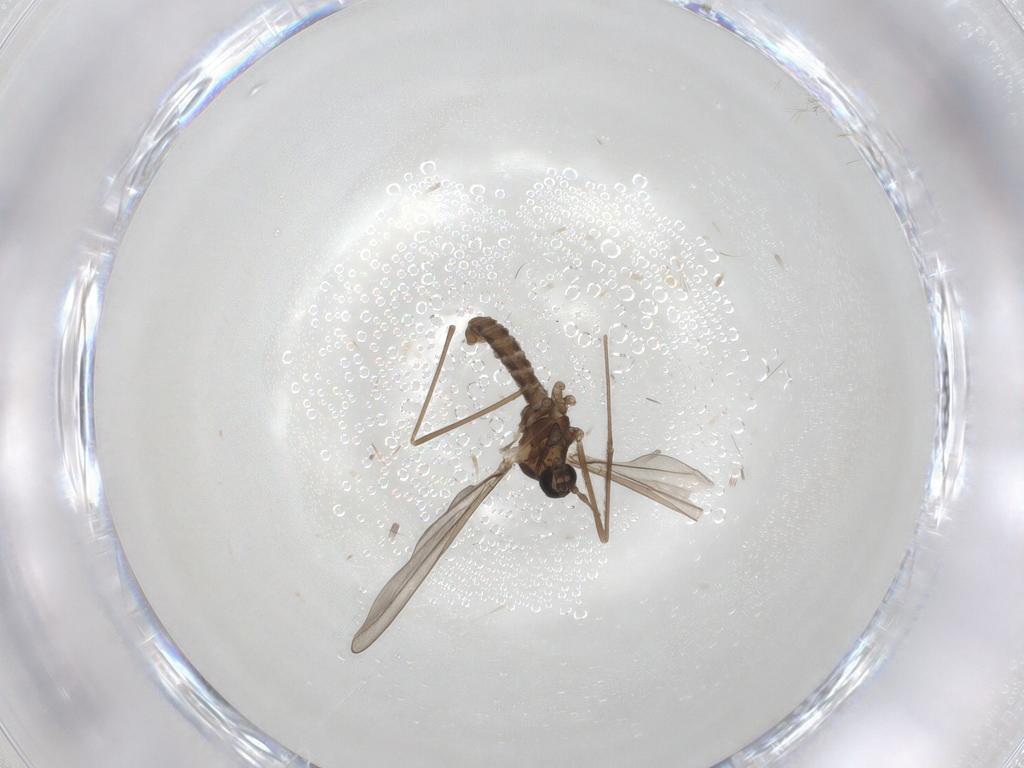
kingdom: Animalia
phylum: Arthropoda
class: Insecta
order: Diptera
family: Cecidomyiidae
